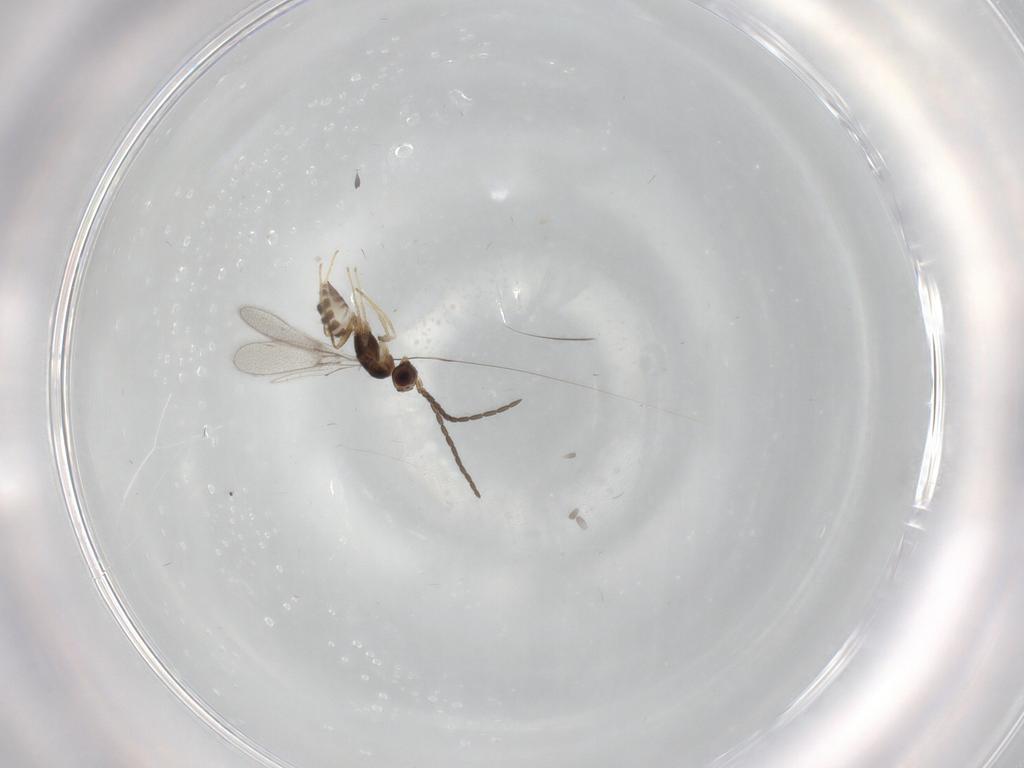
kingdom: Animalia
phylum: Arthropoda
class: Insecta
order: Hymenoptera
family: Mymaridae
